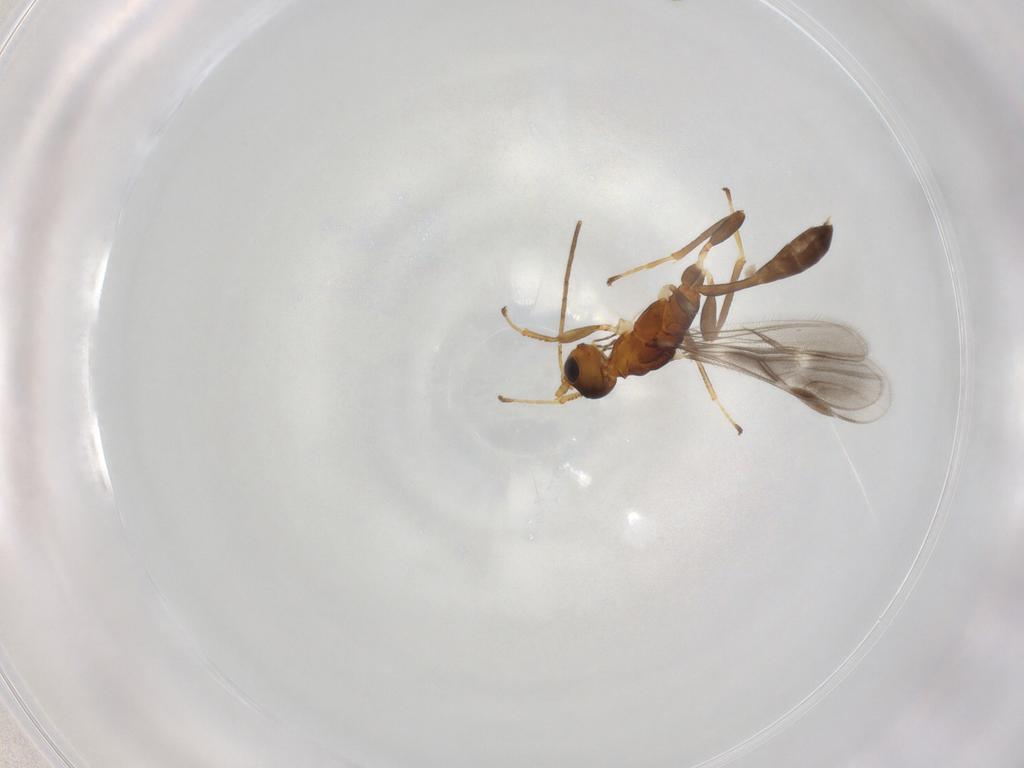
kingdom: Animalia
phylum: Arthropoda
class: Insecta
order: Hymenoptera
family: Braconidae
